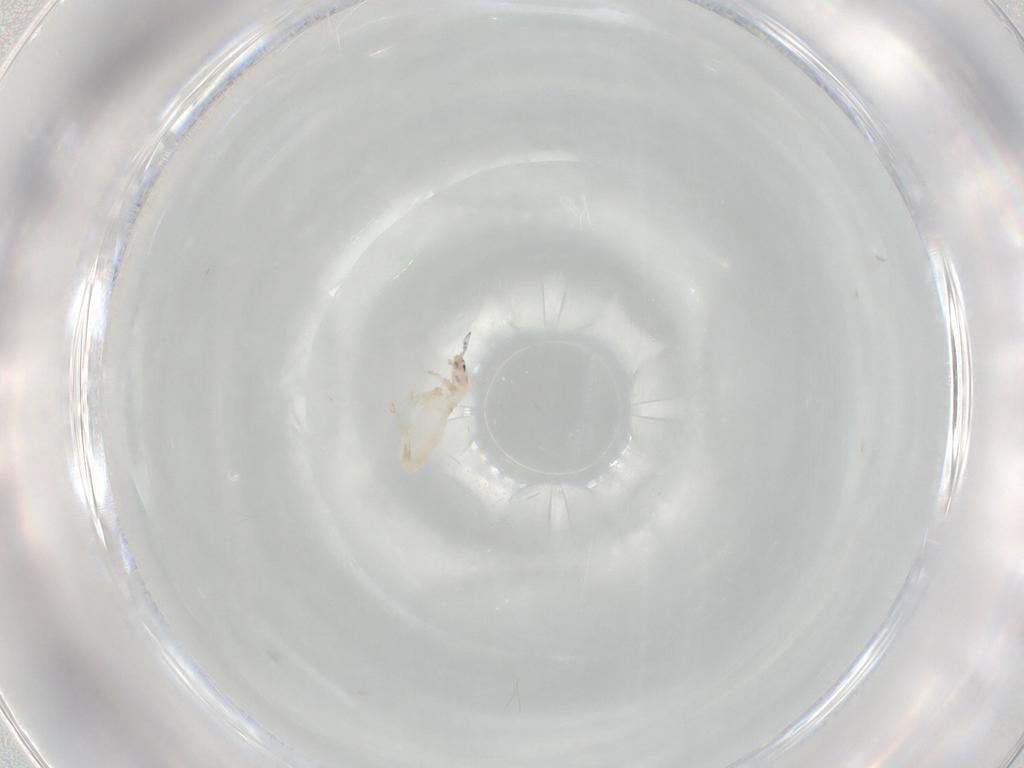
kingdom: Animalia
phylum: Arthropoda
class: Collembola
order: Entomobryomorpha
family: Entomobryidae
